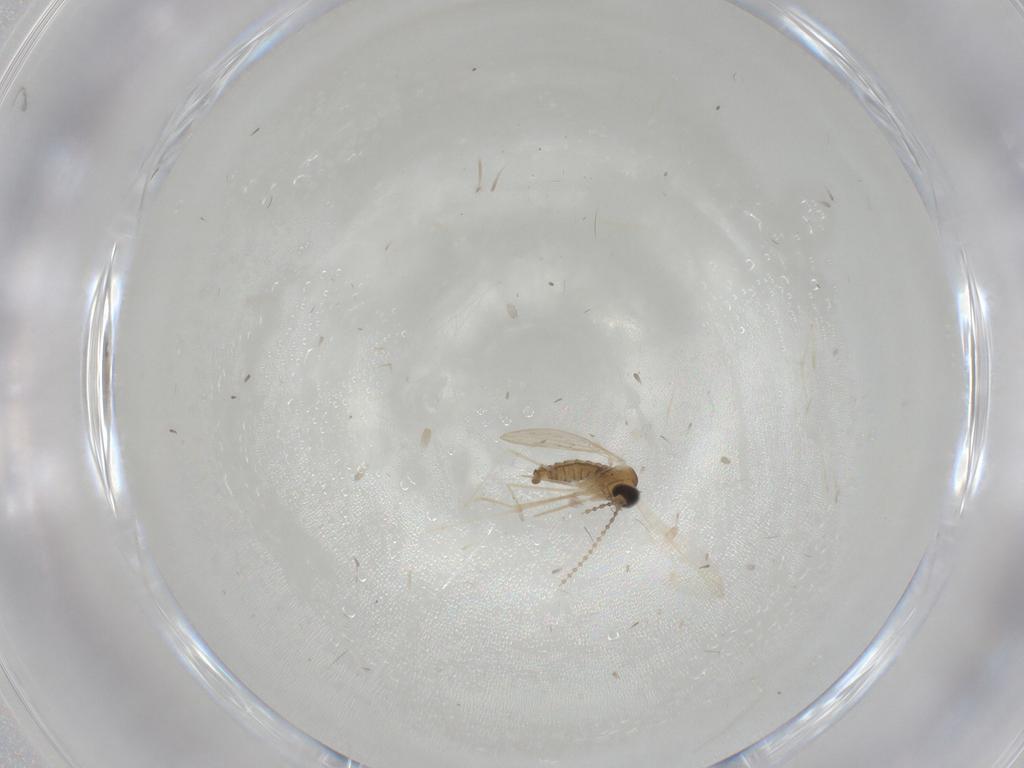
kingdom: Animalia
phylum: Arthropoda
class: Insecta
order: Diptera
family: Cecidomyiidae
